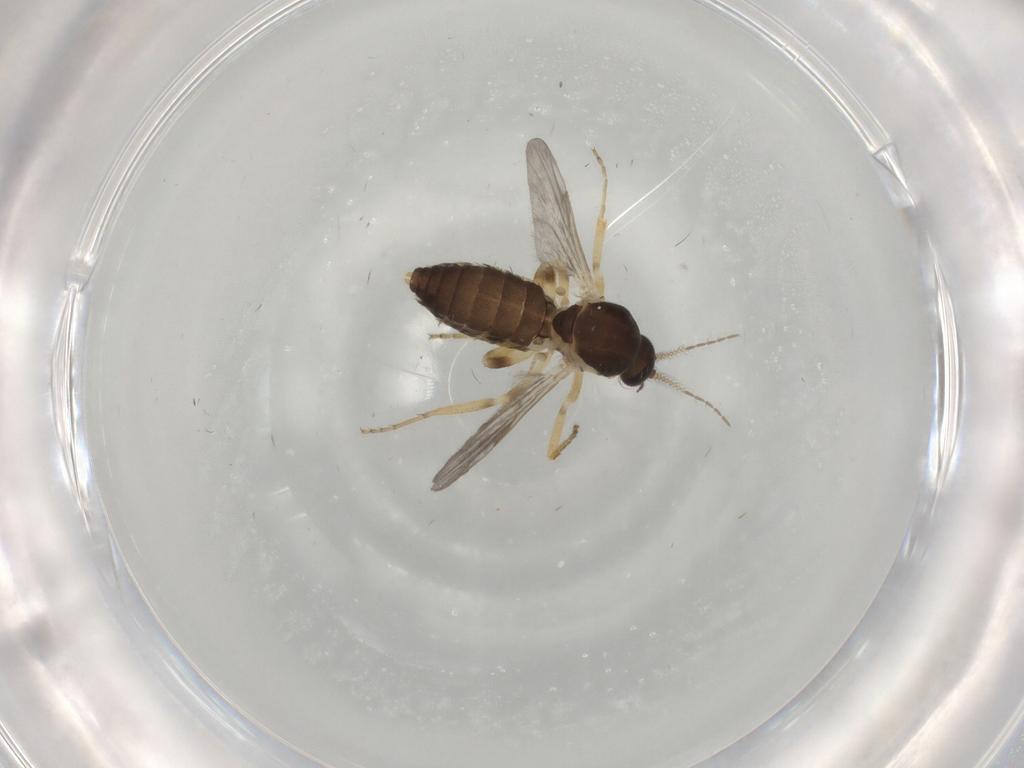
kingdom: Animalia
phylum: Arthropoda
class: Insecta
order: Diptera
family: Ceratopogonidae
